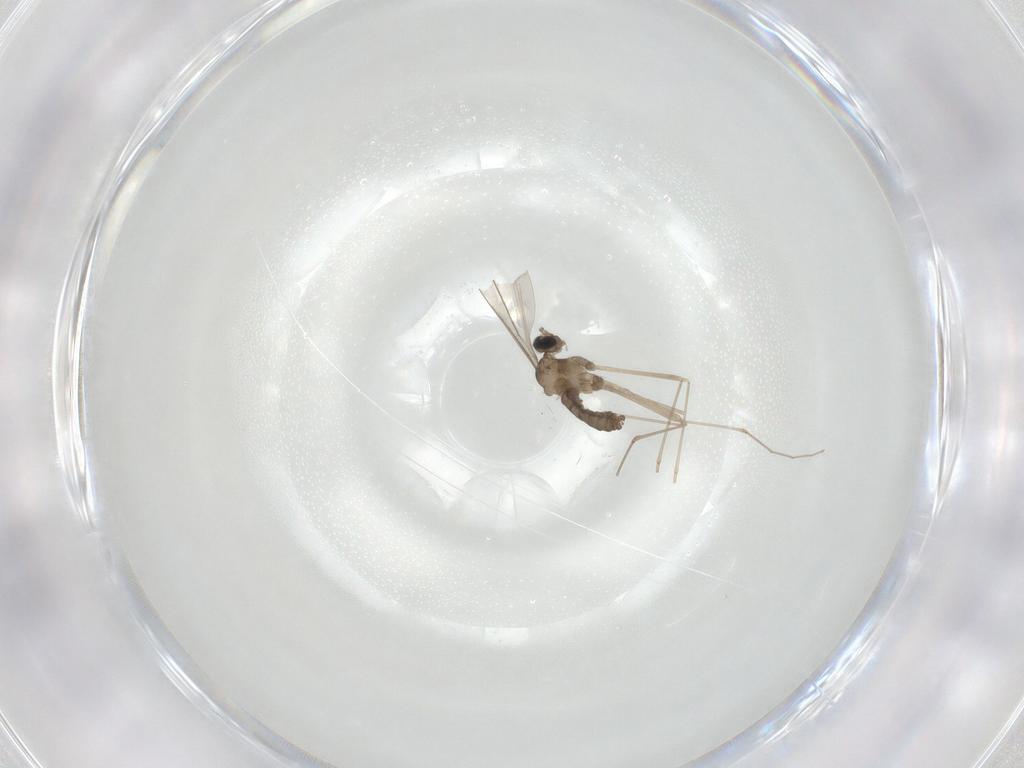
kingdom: Animalia
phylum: Arthropoda
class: Insecta
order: Diptera
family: Cecidomyiidae
